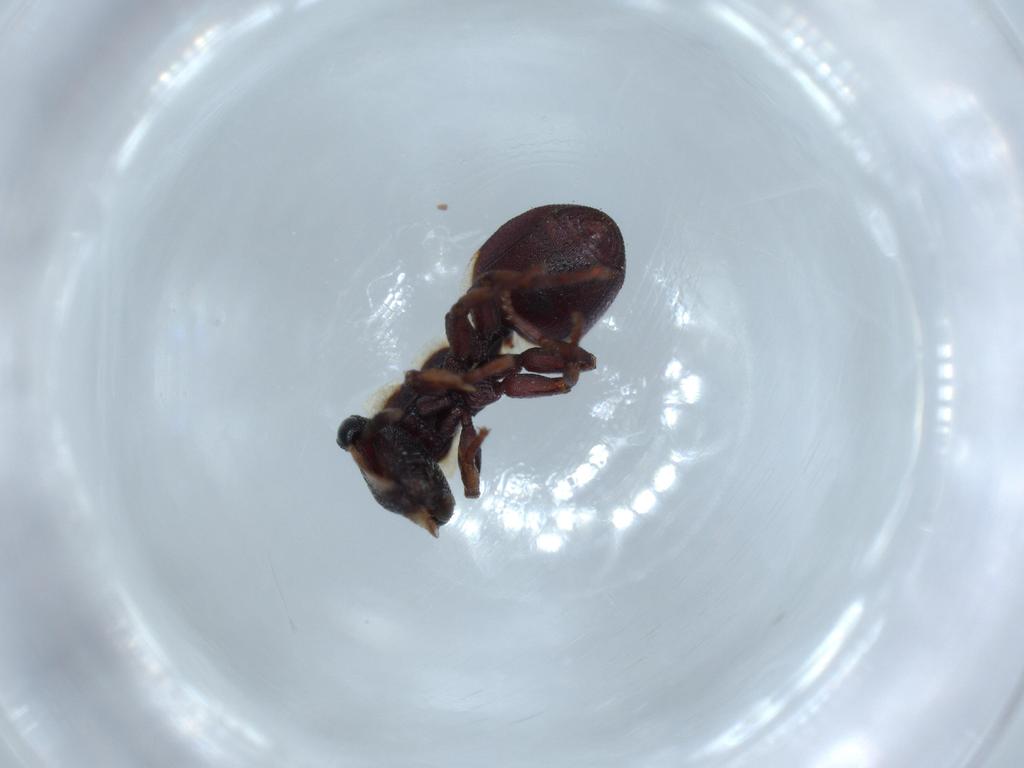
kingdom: Animalia
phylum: Arthropoda
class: Insecta
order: Hymenoptera
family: Formicidae
